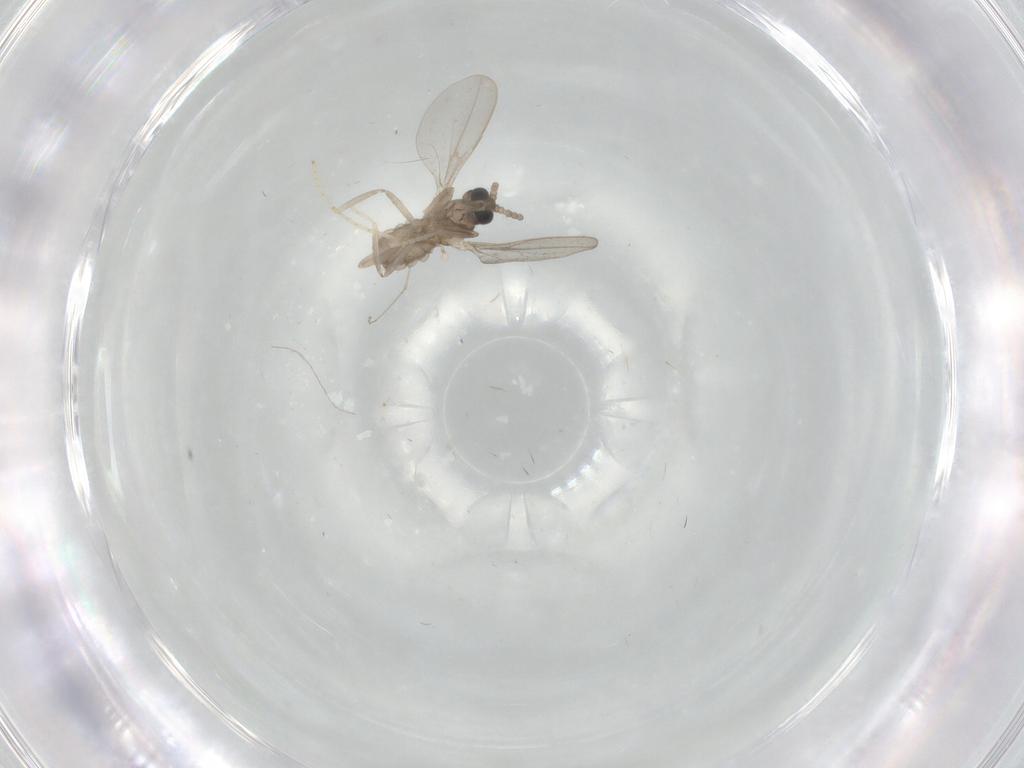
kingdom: Animalia
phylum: Arthropoda
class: Insecta
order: Diptera
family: Cecidomyiidae
